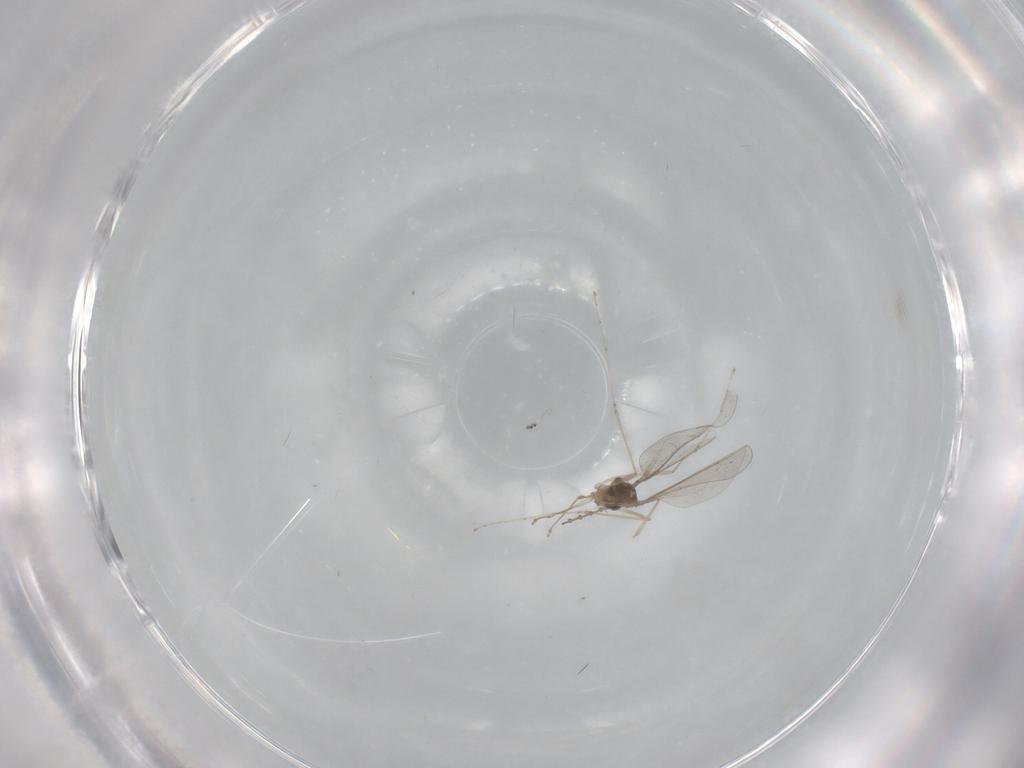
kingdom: Animalia
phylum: Arthropoda
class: Insecta
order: Diptera
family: Cecidomyiidae
